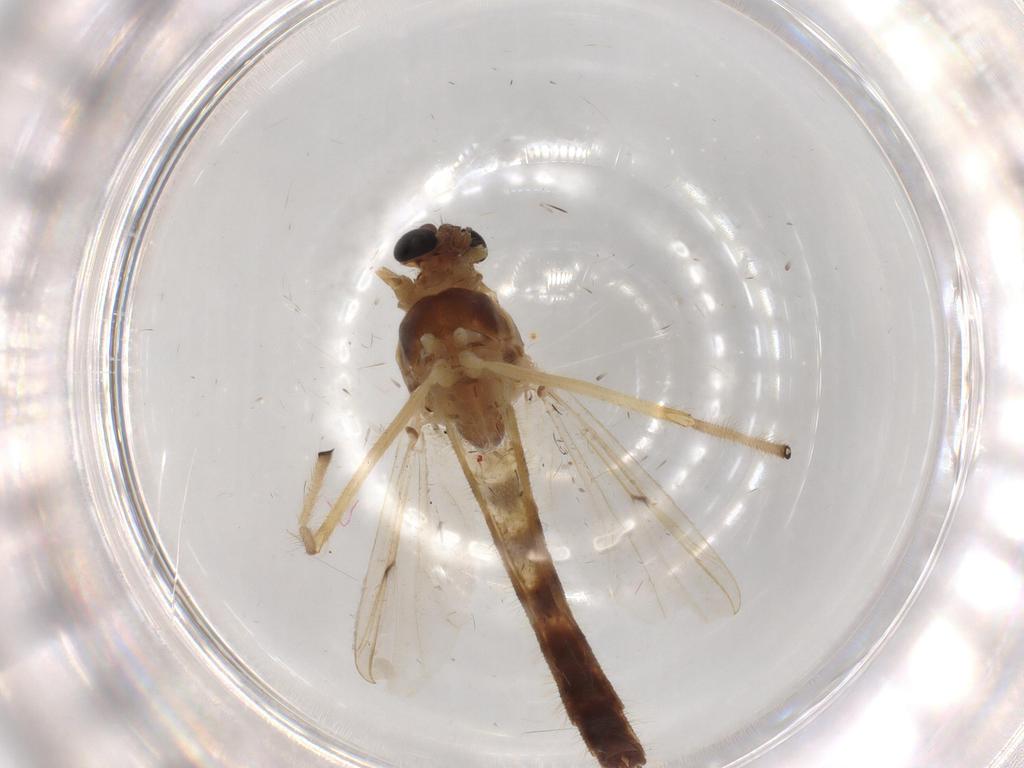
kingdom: Animalia
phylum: Arthropoda
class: Insecta
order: Diptera
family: Chironomidae
